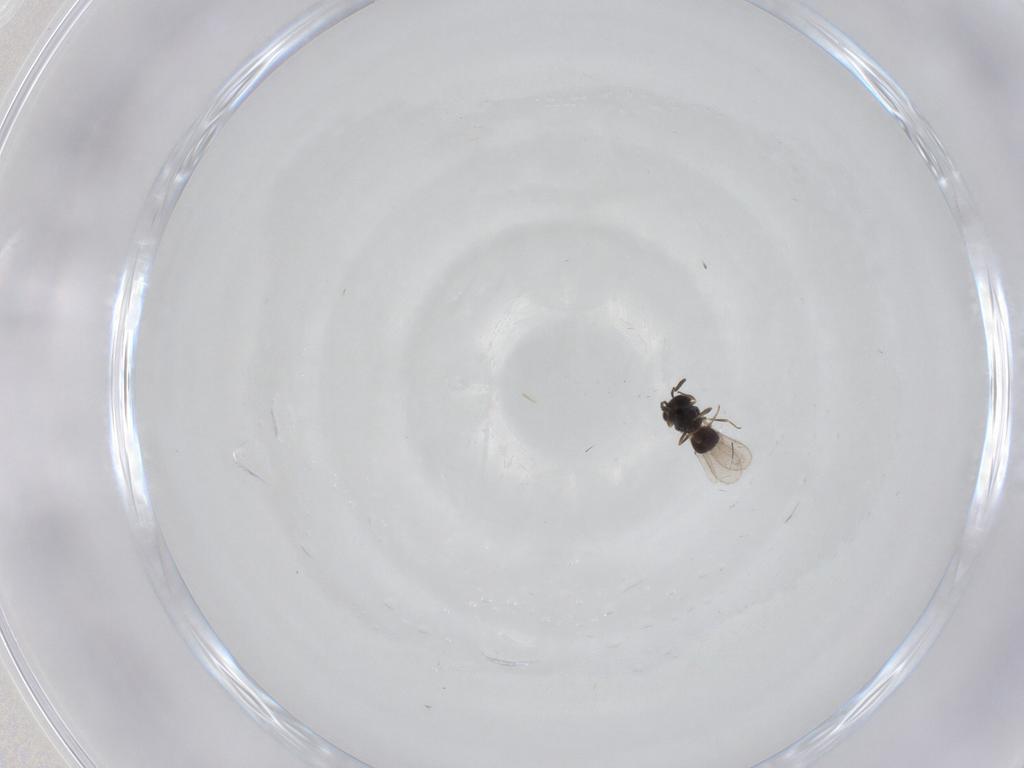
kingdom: Animalia
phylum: Arthropoda
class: Insecta
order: Hymenoptera
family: Scelionidae
